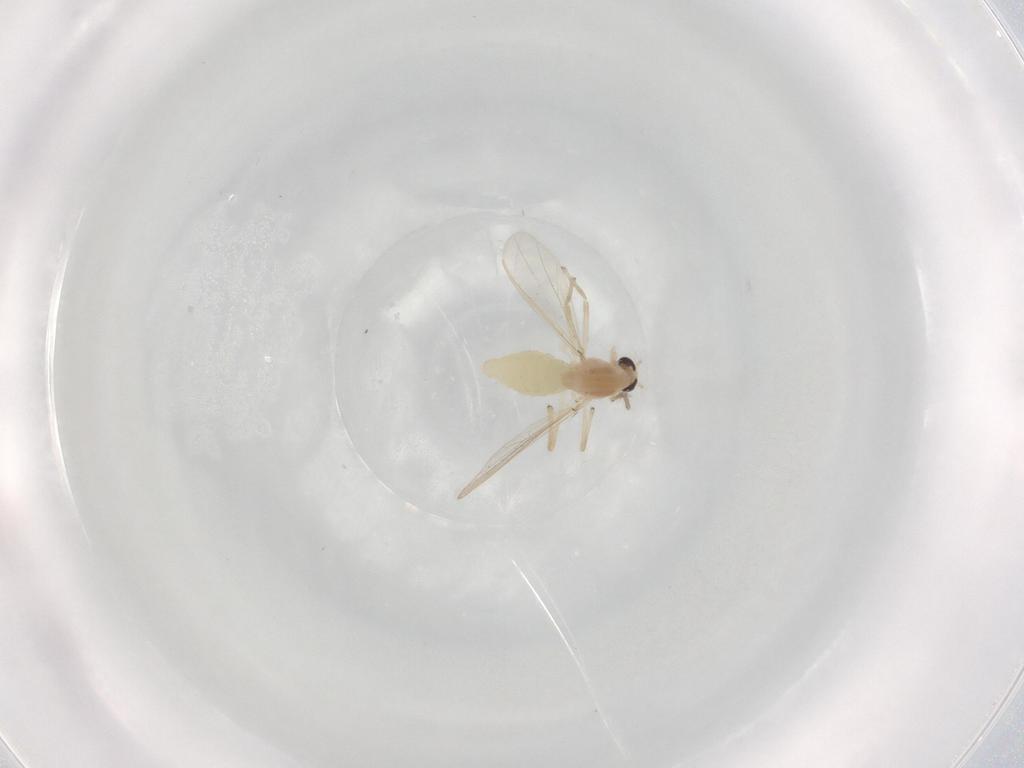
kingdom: Animalia
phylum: Arthropoda
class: Insecta
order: Diptera
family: Chironomidae
